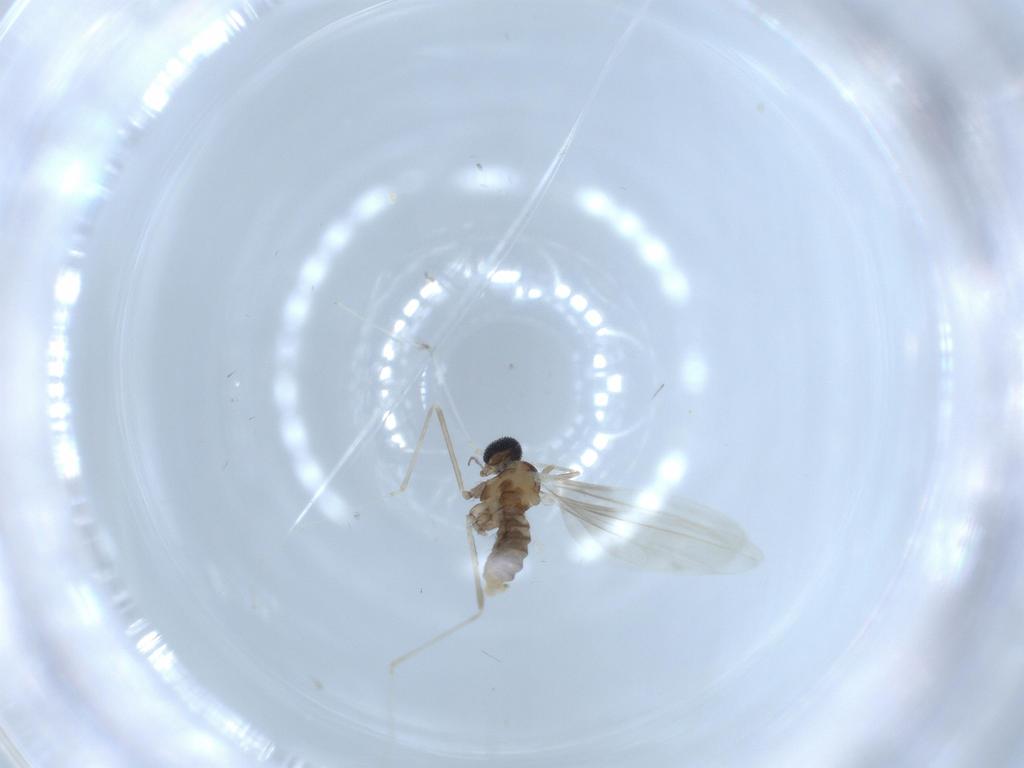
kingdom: Animalia
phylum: Arthropoda
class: Insecta
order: Diptera
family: Cecidomyiidae
